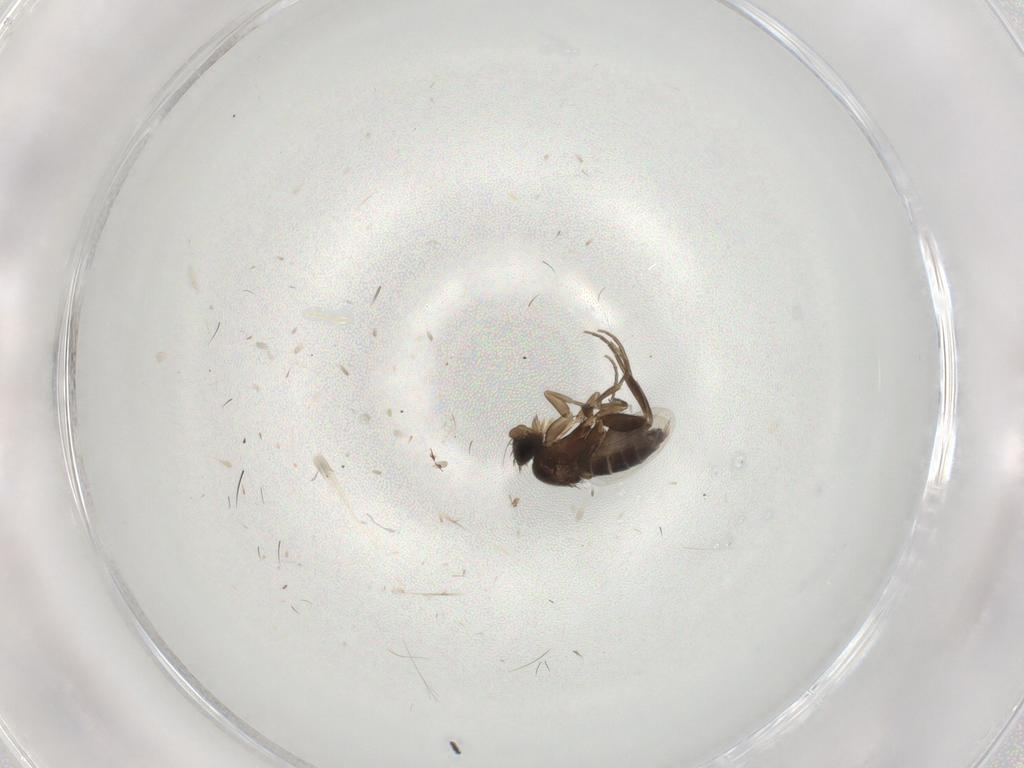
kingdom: Animalia
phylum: Arthropoda
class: Insecta
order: Diptera
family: Phoridae
